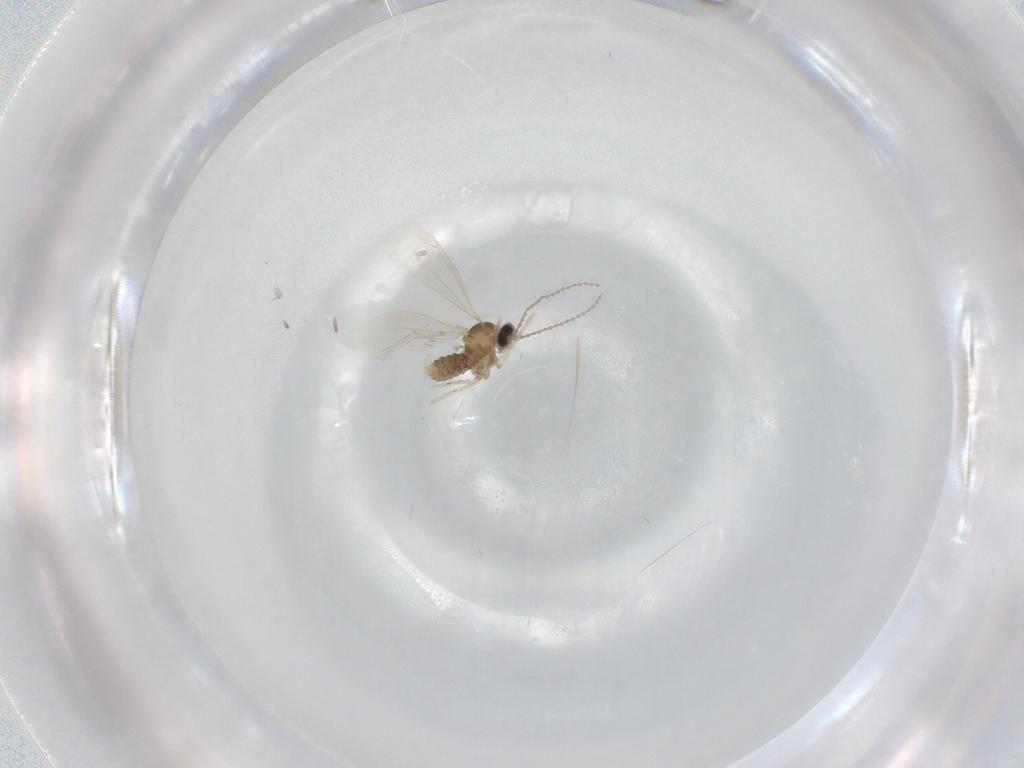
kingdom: Animalia
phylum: Arthropoda
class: Insecta
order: Diptera
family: Cecidomyiidae
